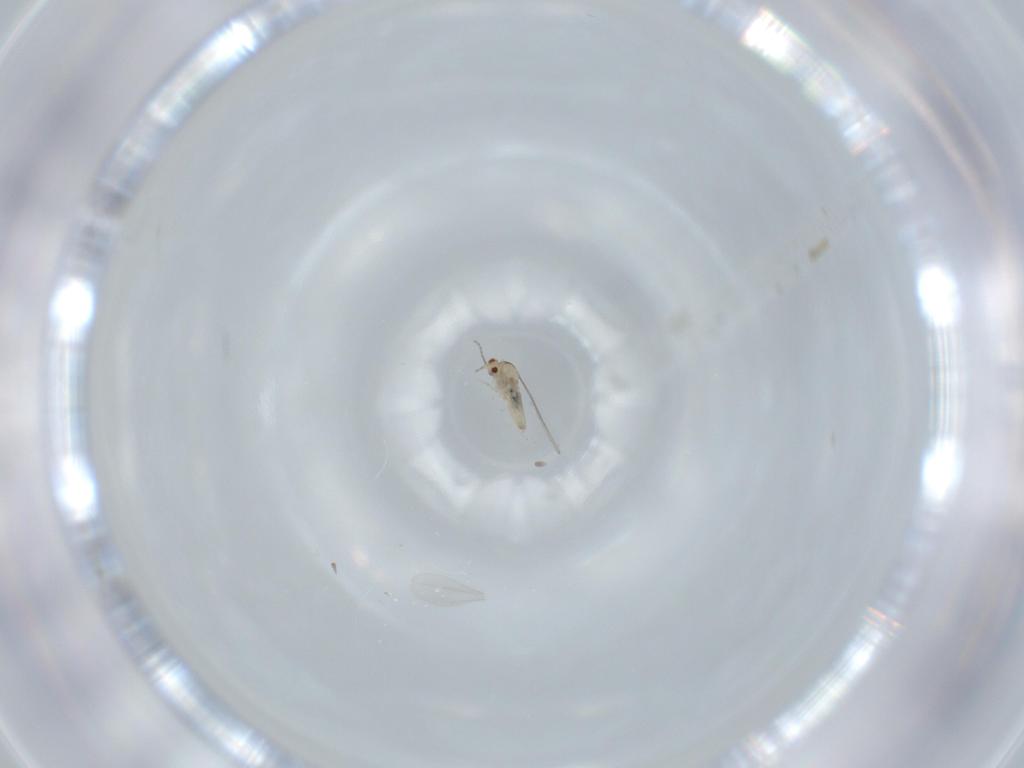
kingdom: Animalia
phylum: Arthropoda
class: Insecta
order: Diptera
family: Cecidomyiidae
